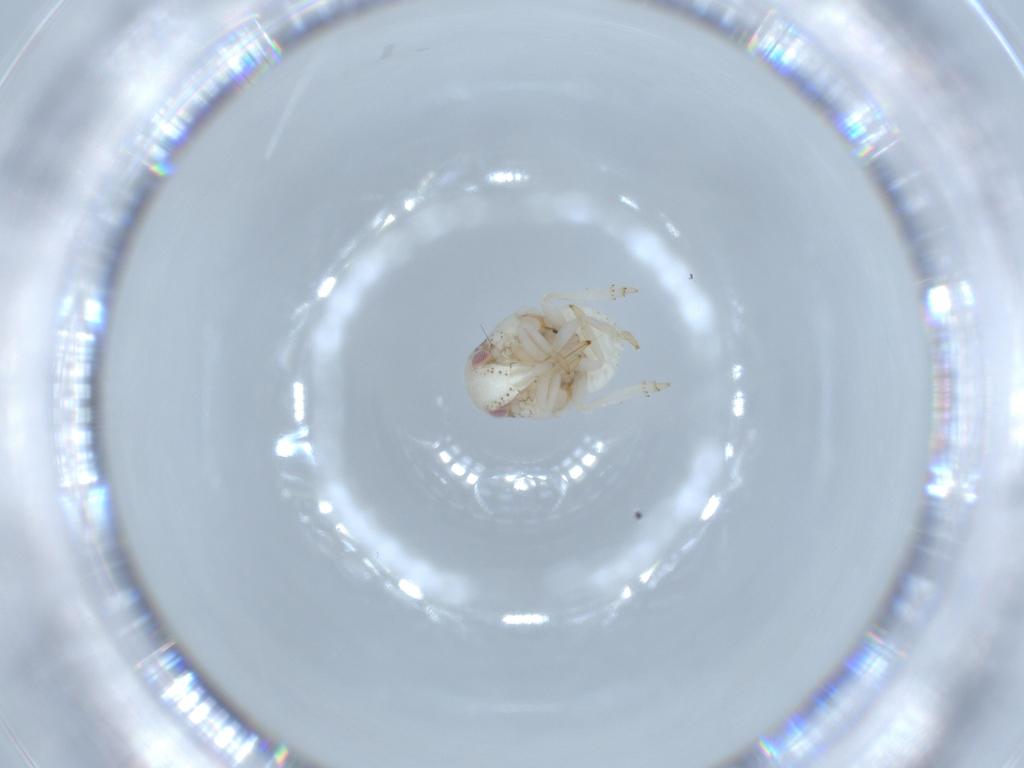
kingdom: Animalia
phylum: Arthropoda
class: Insecta
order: Hemiptera
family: Acanaloniidae
